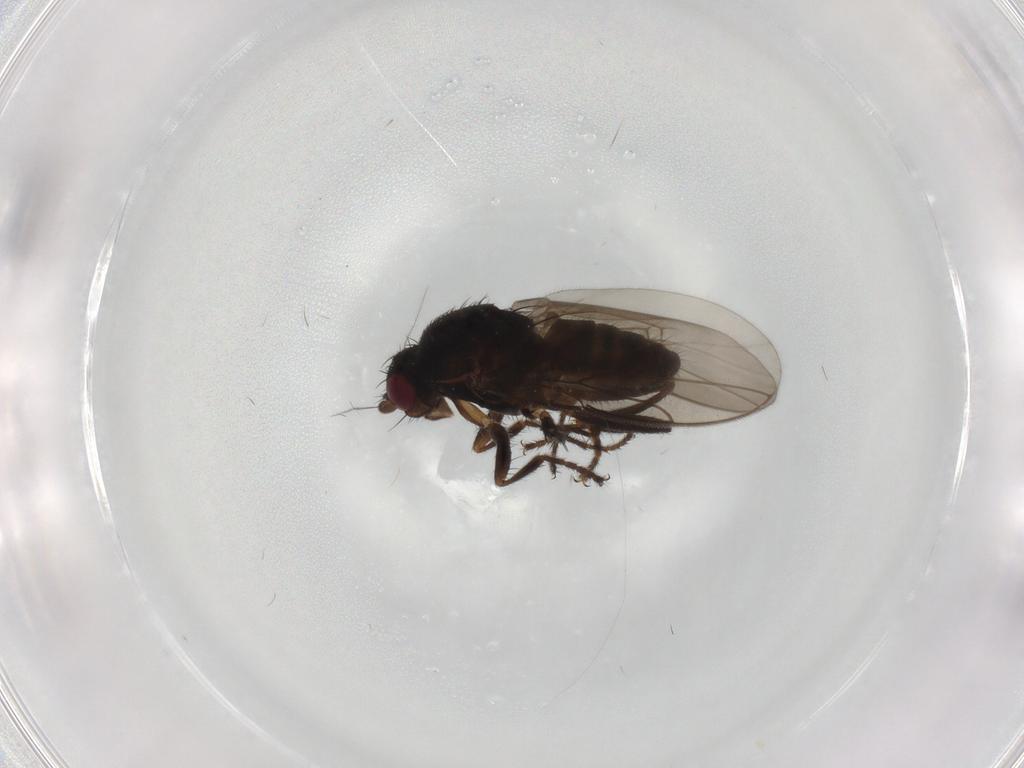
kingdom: Animalia
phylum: Arthropoda
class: Insecta
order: Diptera
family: Sphaeroceridae
